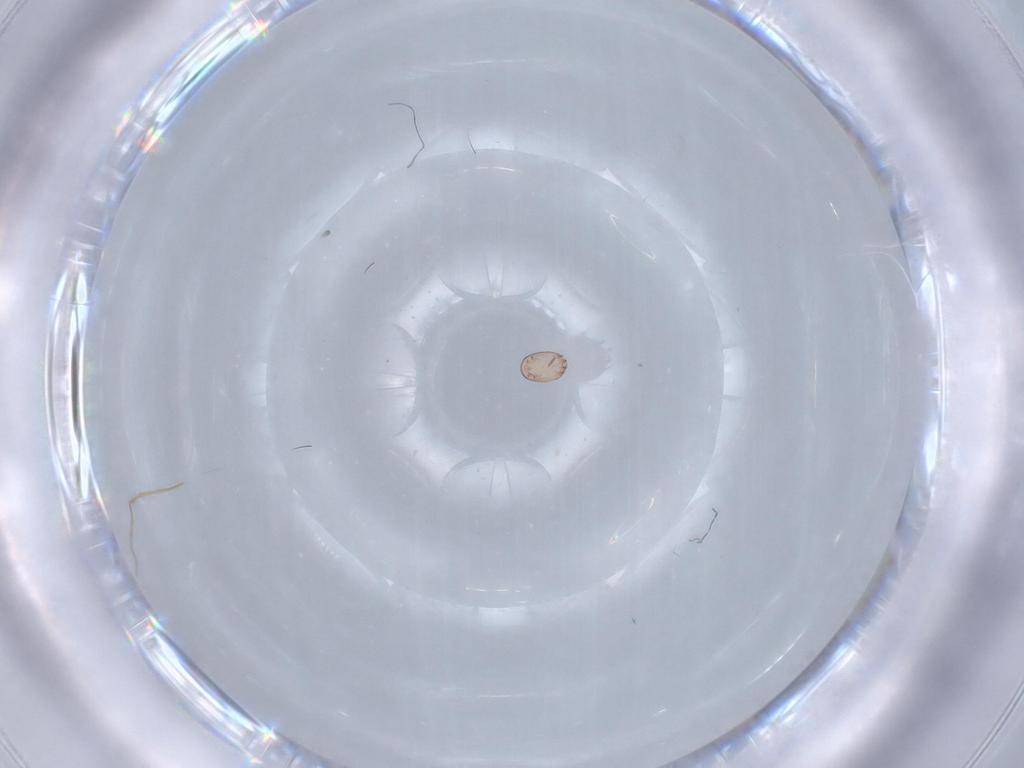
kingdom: Animalia
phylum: Arthropoda
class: Arachnida
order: Trombidiformes
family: Anystidae
